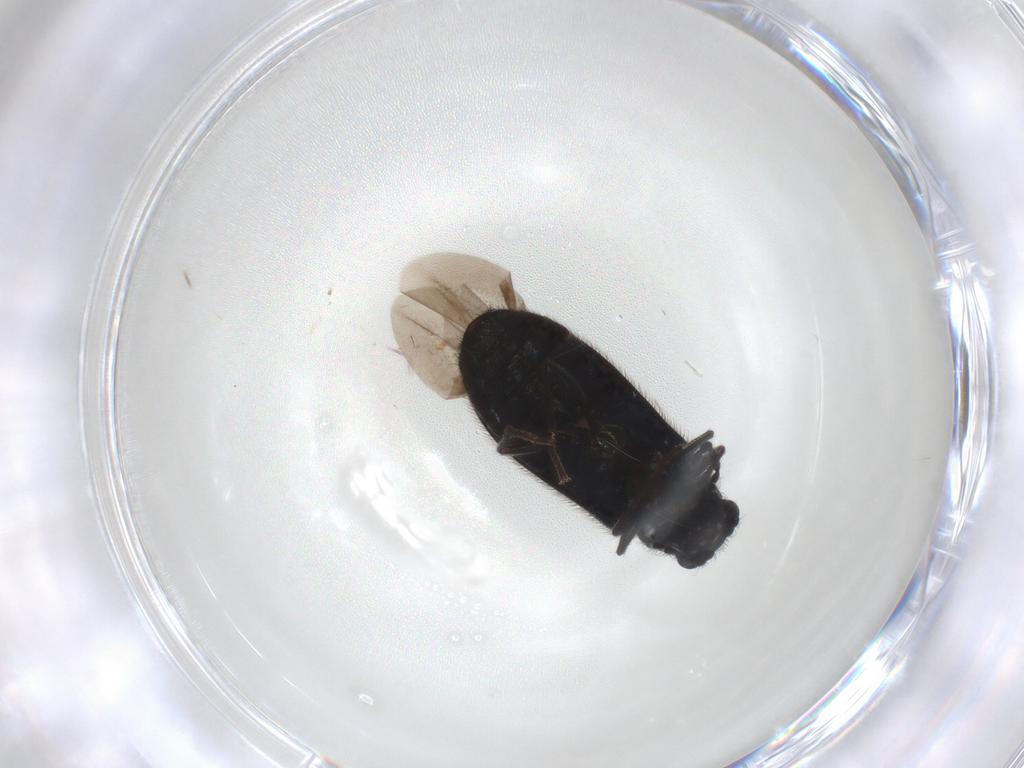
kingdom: Animalia
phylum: Arthropoda
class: Insecta
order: Coleoptera
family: Melyridae
